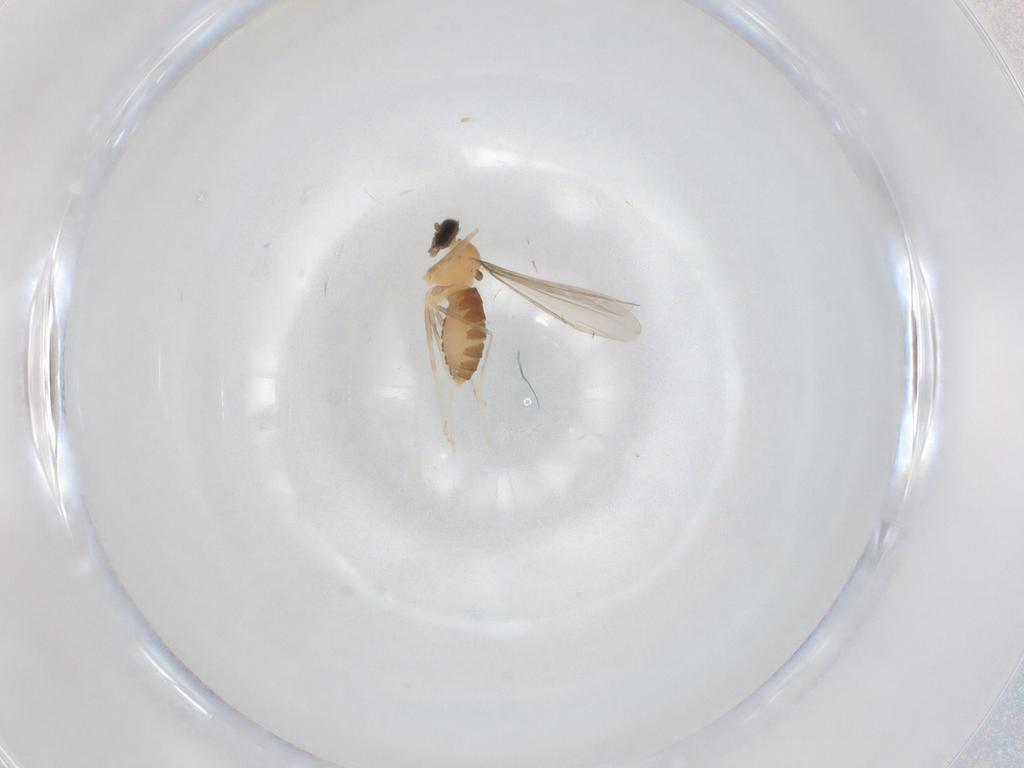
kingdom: Animalia
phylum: Arthropoda
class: Insecta
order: Diptera
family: Cecidomyiidae
